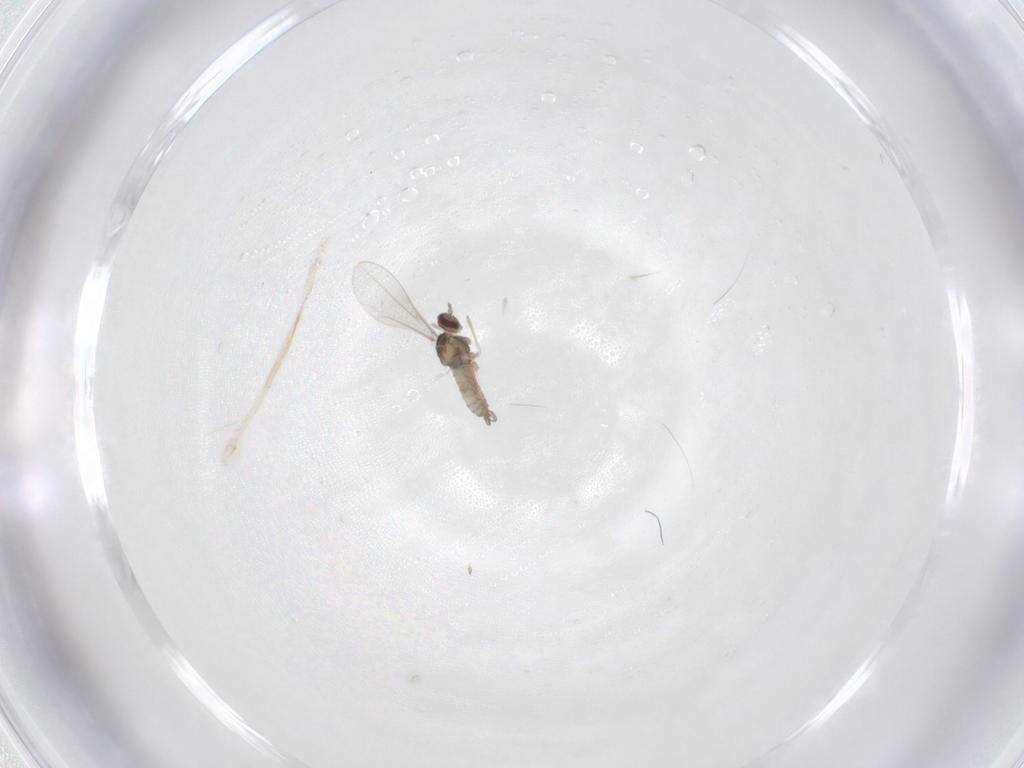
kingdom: Animalia
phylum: Arthropoda
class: Insecta
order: Diptera
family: Cecidomyiidae
